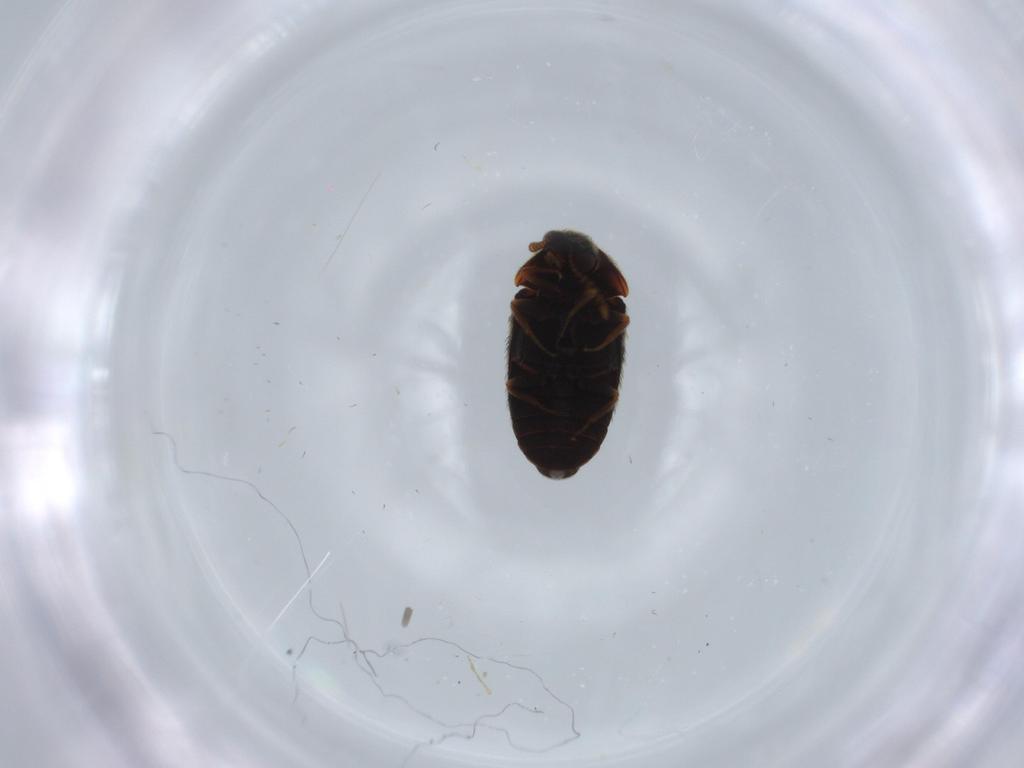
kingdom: Animalia
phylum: Arthropoda
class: Insecta
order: Coleoptera
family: Dermestidae
